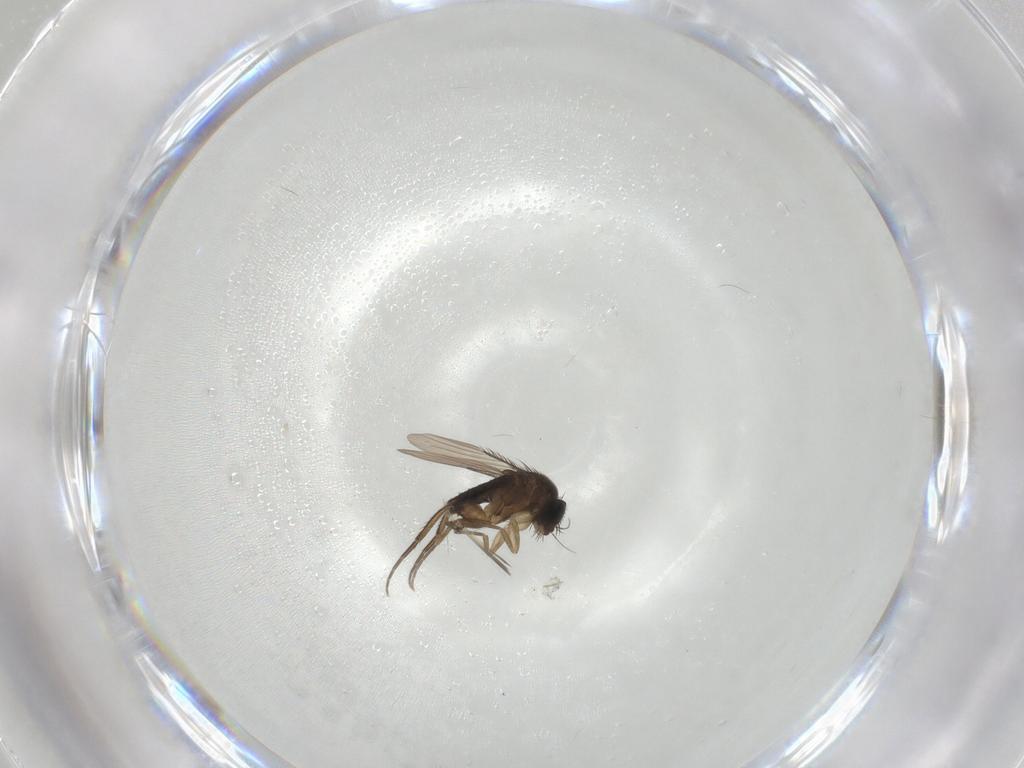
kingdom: Animalia
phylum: Arthropoda
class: Insecta
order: Diptera
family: Phoridae
